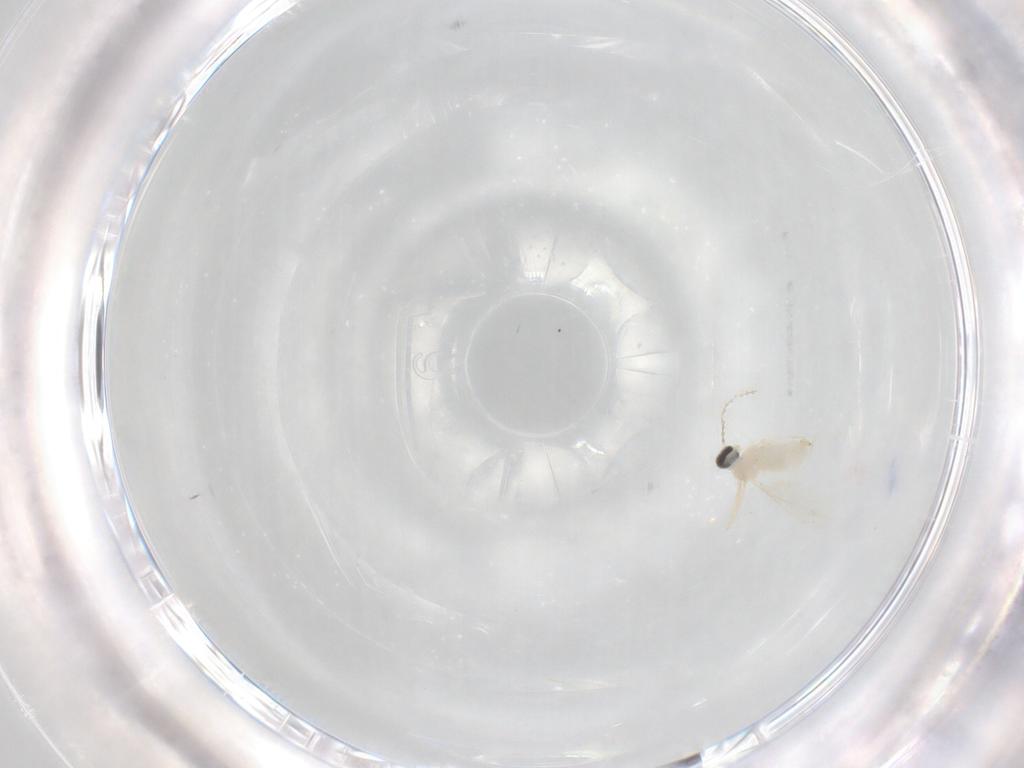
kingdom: Animalia
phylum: Arthropoda
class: Insecta
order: Diptera
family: Cecidomyiidae
